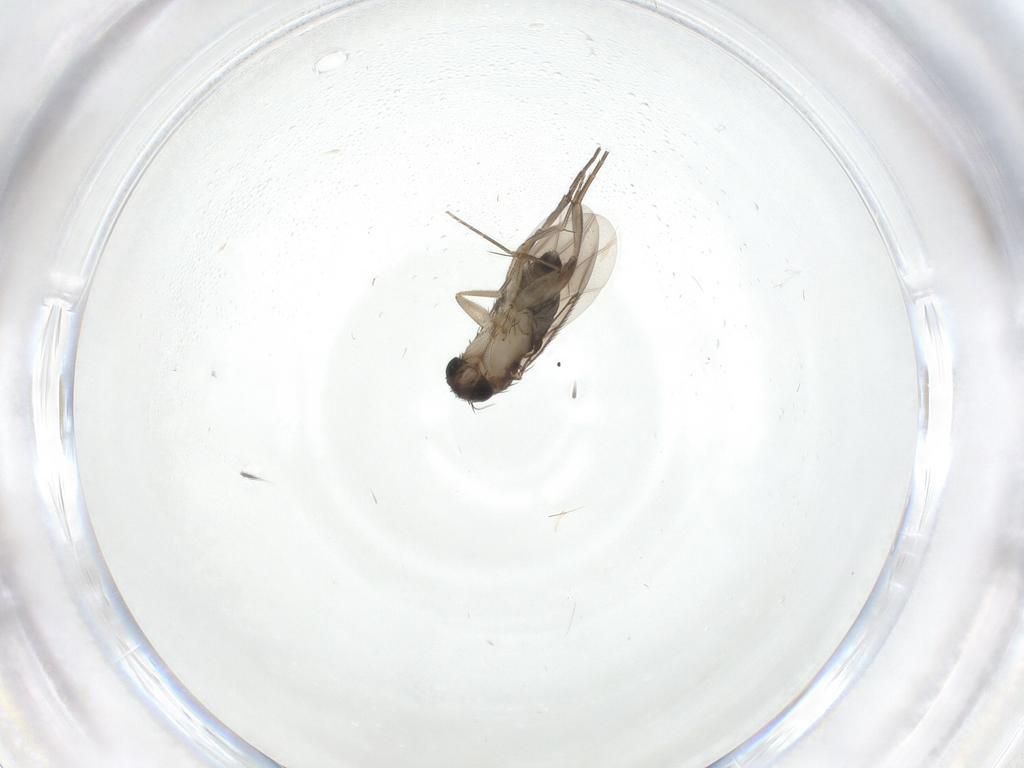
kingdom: Animalia
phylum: Arthropoda
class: Insecta
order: Diptera
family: Phoridae
